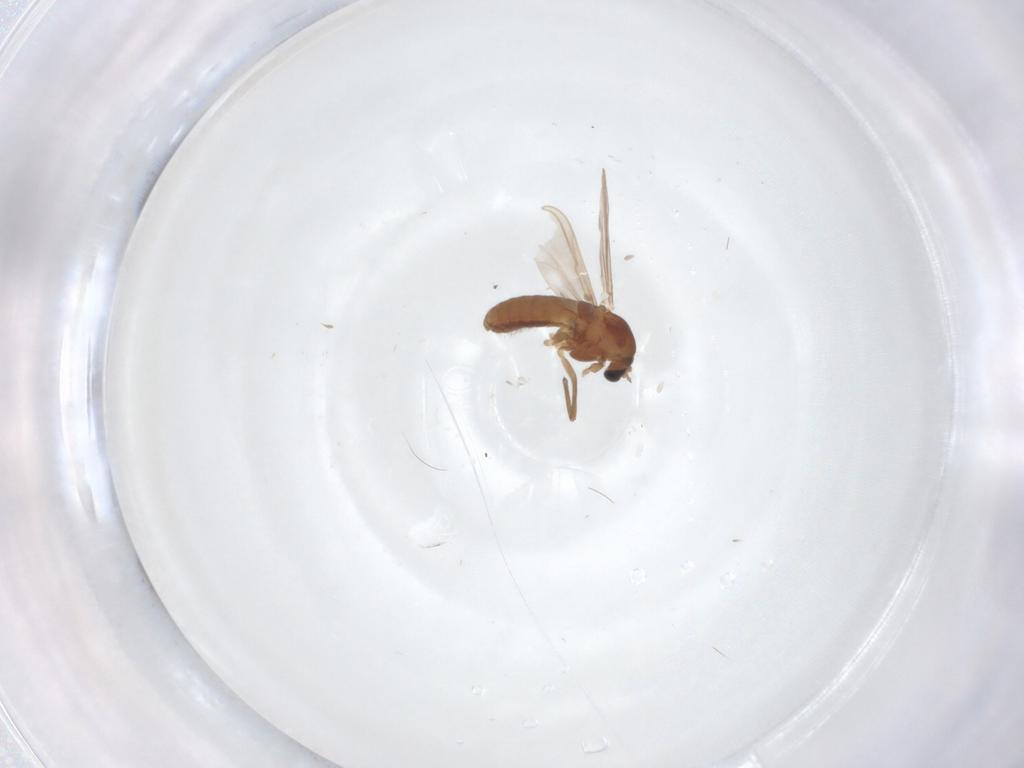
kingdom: Animalia
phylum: Arthropoda
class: Insecta
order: Diptera
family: Chironomidae
